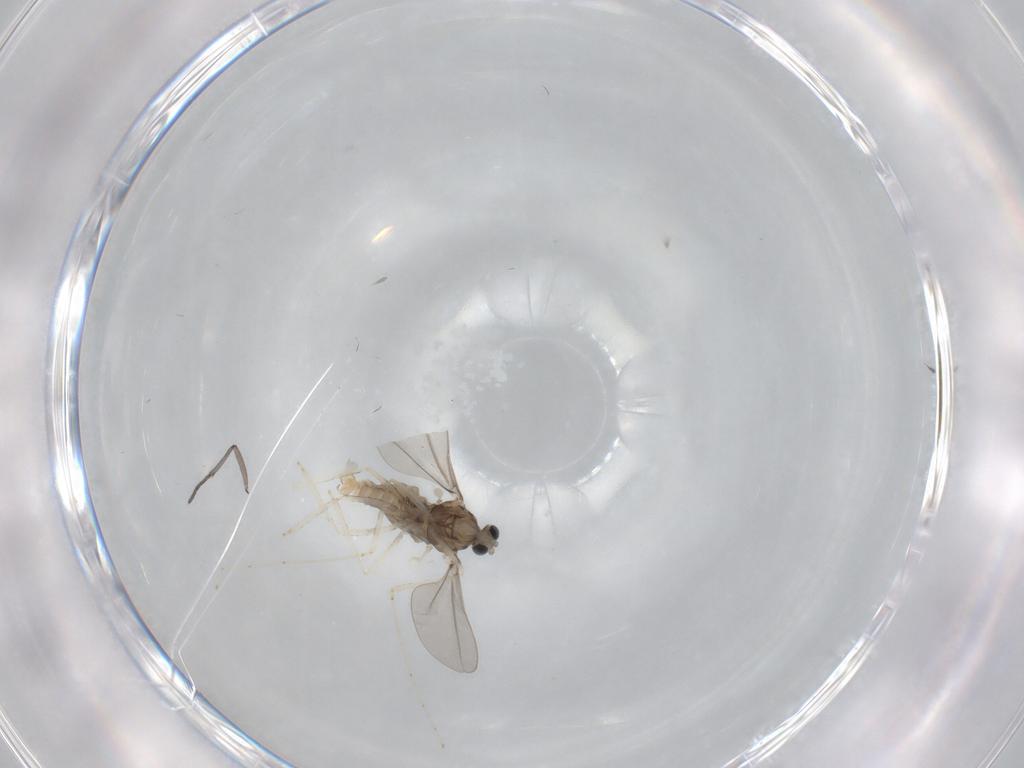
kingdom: Animalia
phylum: Arthropoda
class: Insecta
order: Diptera
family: Sciaridae
